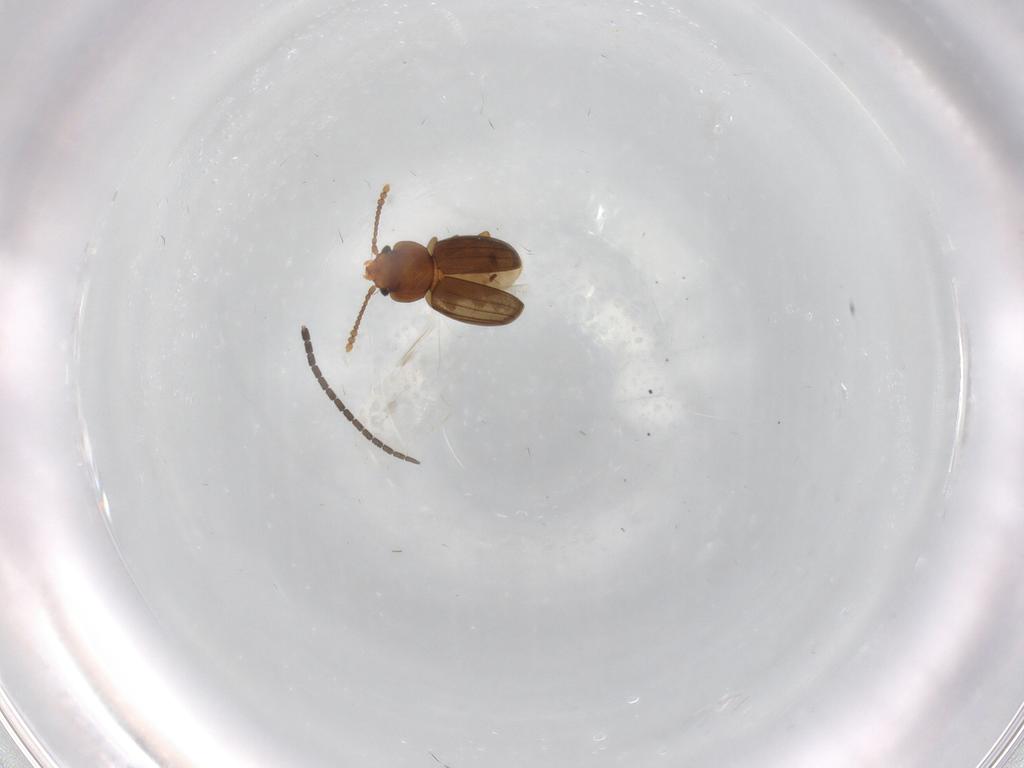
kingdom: Animalia
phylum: Arthropoda
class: Insecta
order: Coleoptera
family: Laemophloeidae
